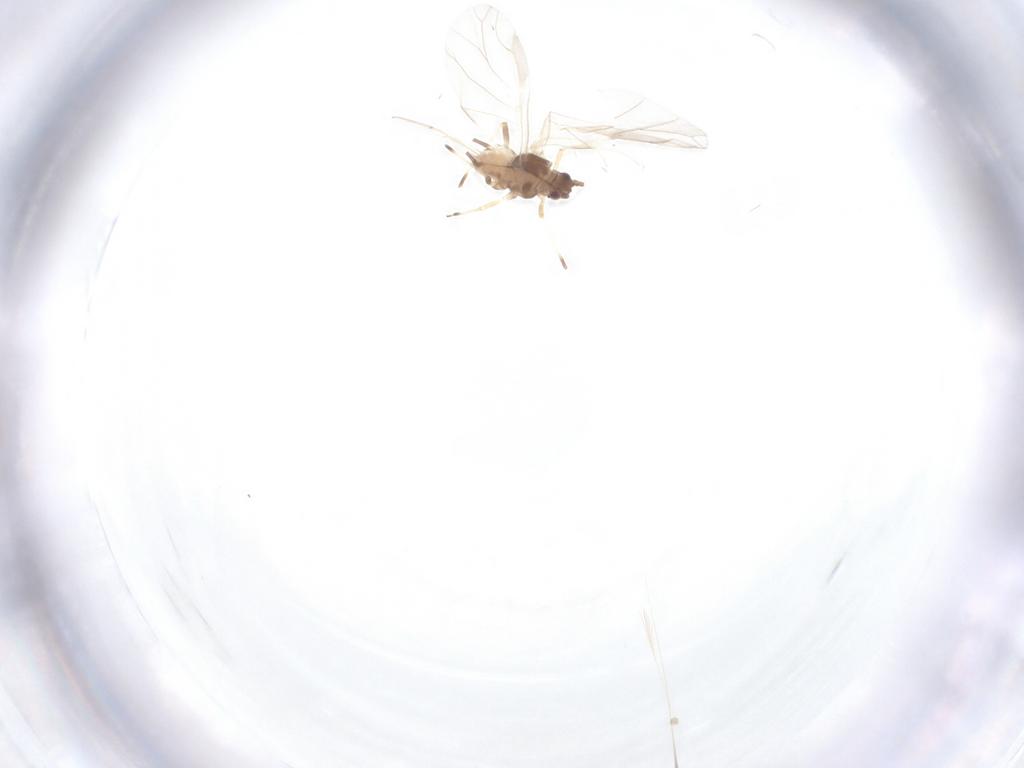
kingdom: Animalia
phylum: Arthropoda
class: Insecta
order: Hemiptera
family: Aphididae
